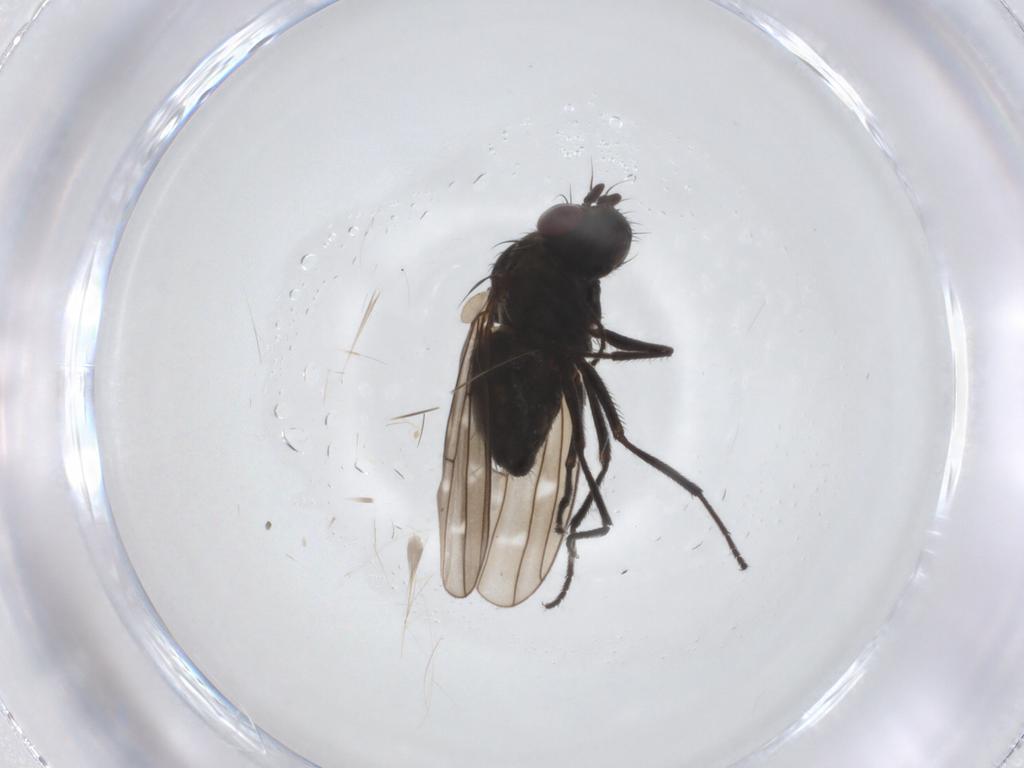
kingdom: Animalia
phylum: Arthropoda
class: Insecta
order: Diptera
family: Ephydridae
